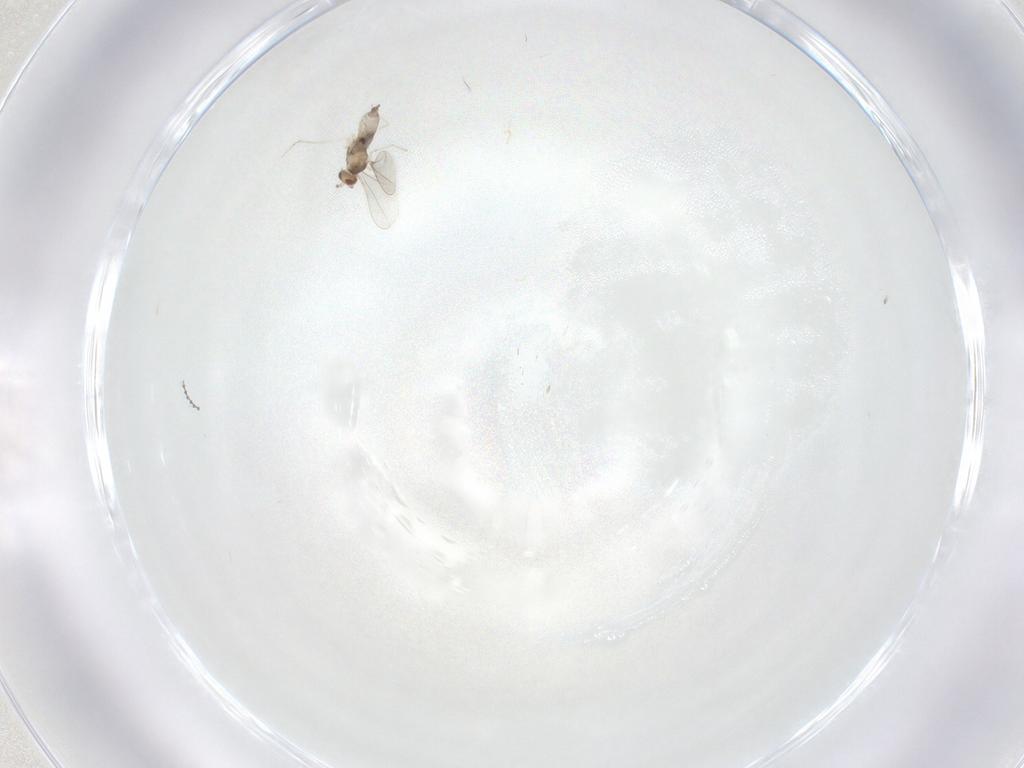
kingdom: Animalia
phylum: Arthropoda
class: Insecta
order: Diptera
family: Cecidomyiidae
